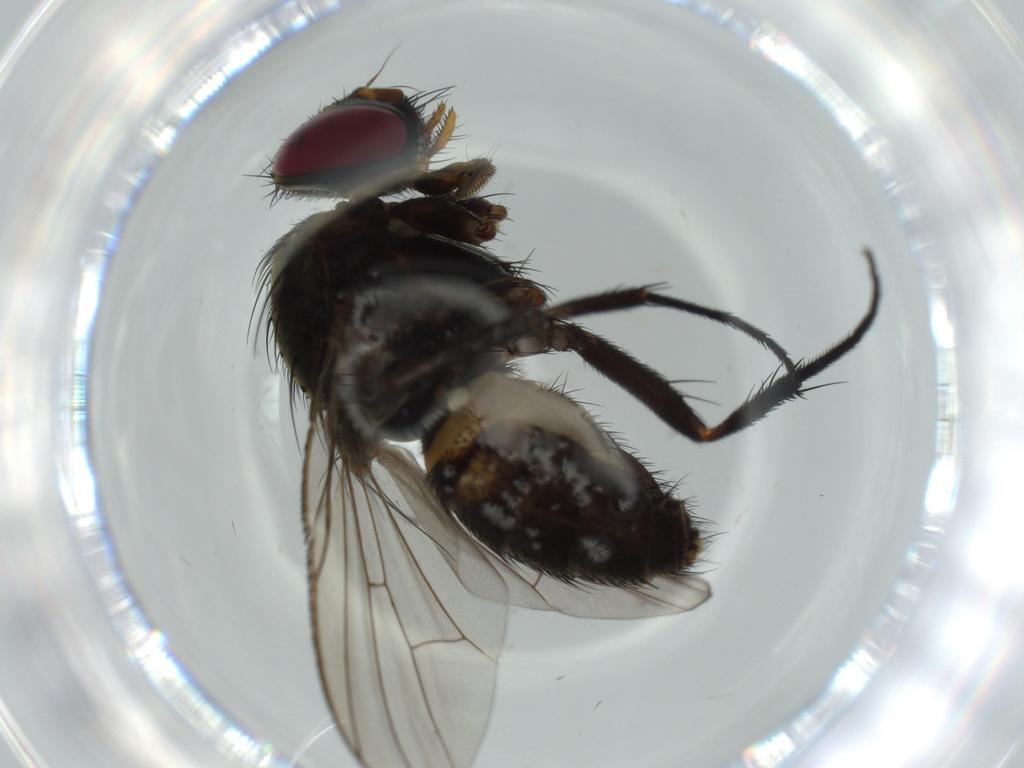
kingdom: Animalia
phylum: Arthropoda
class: Insecta
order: Diptera
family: Milichiidae
